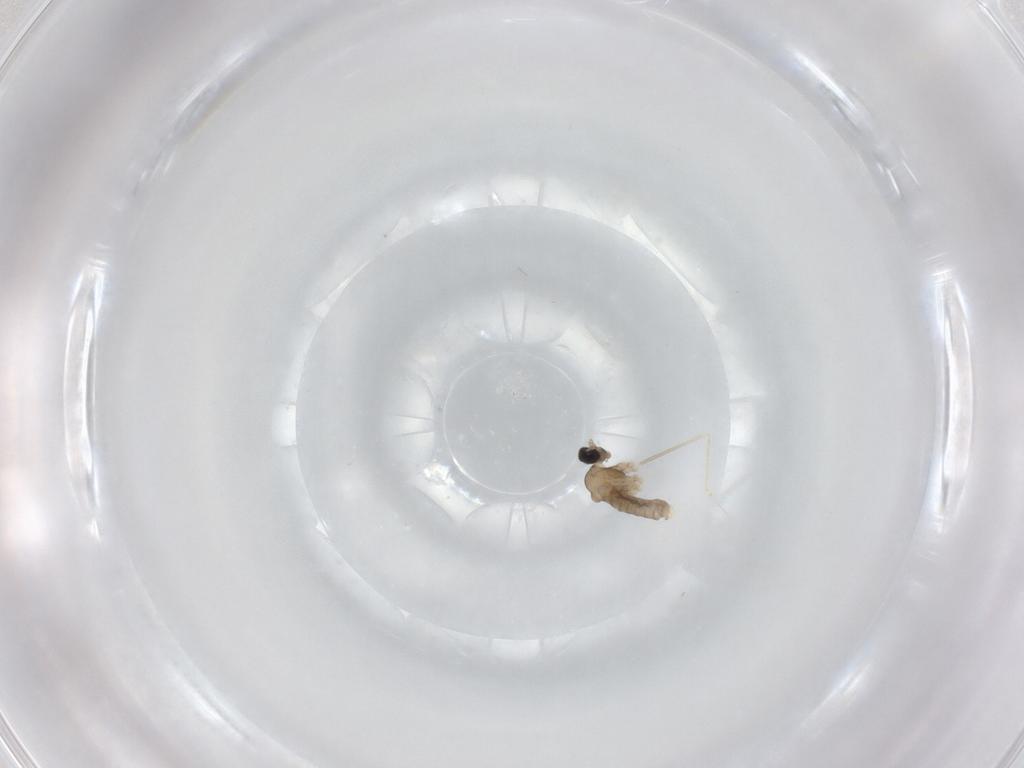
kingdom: Animalia
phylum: Arthropoda
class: Insecta
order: Diptera
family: Cecidomyiidae
